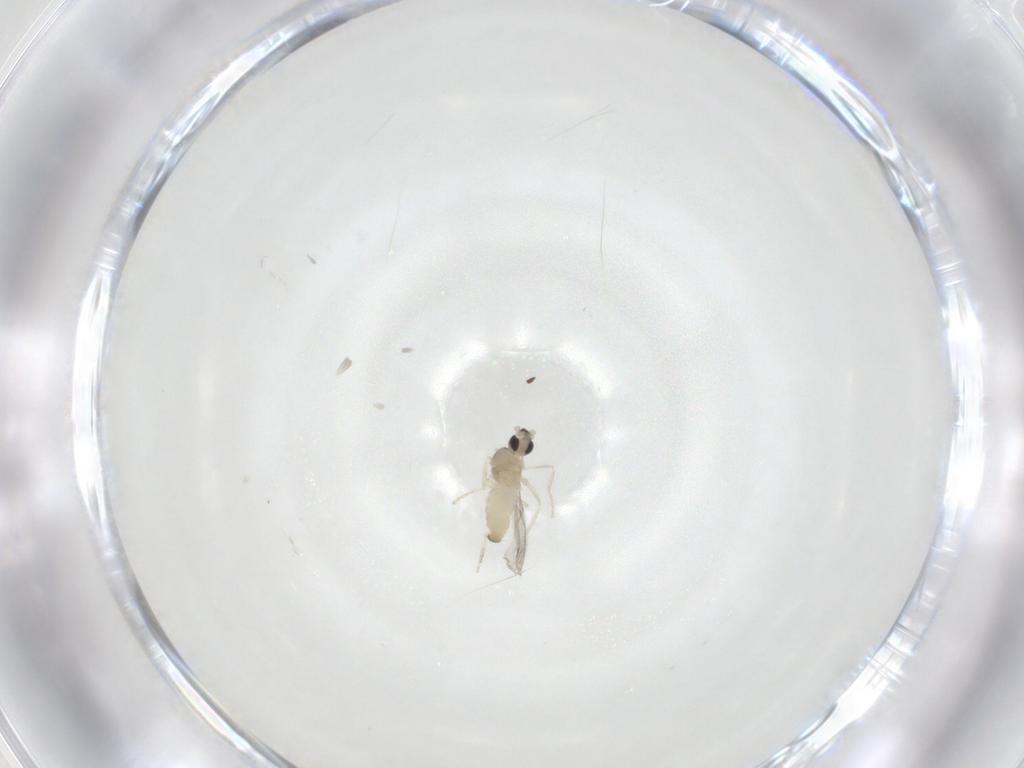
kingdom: Animalia
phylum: Arthropoda
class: Insecta
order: Diptera
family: Cecidomyiidae
